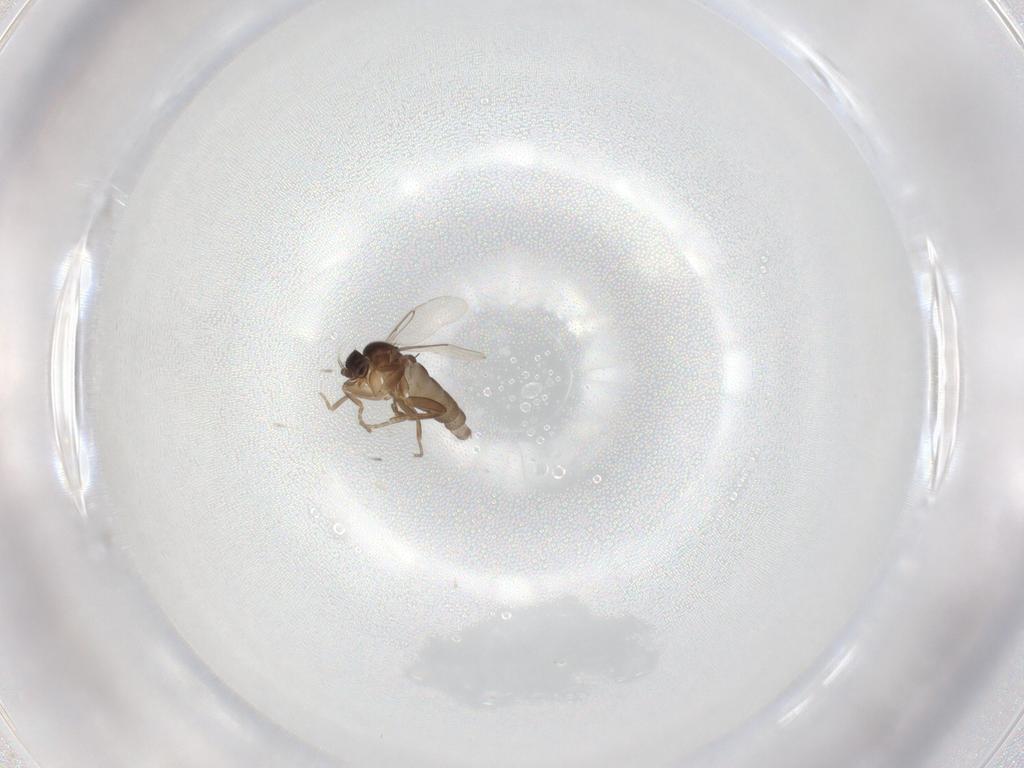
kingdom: Animalia
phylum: Arthropoda
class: Insecta
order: Diptera
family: Phoridae
